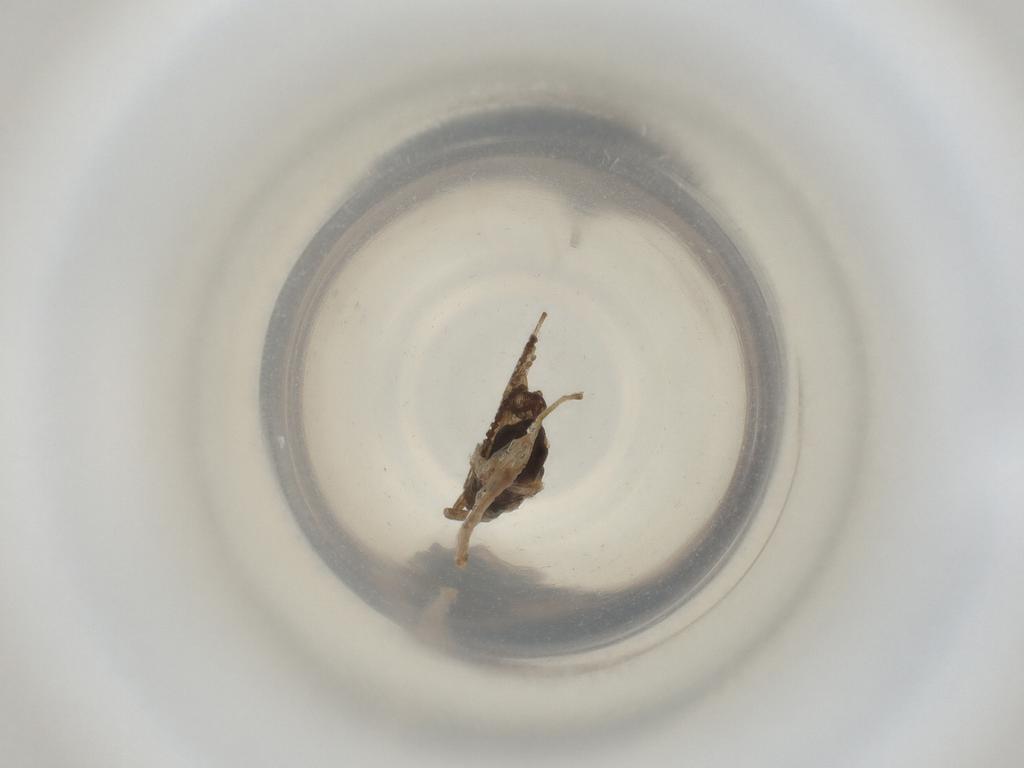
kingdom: Animalia
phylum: Arthropoda
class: Insecta
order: Diptera
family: Cecidomyiidae
